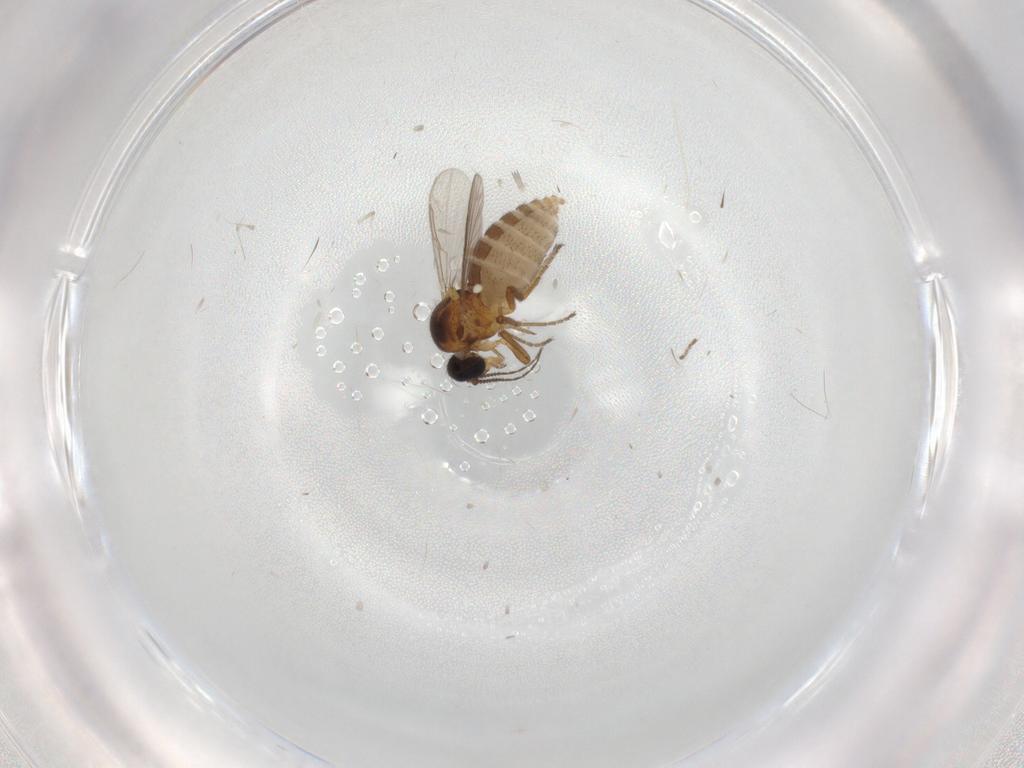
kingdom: Animalia
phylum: Arthropoda
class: Insecta
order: Diptera
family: Ceratopogonidae
